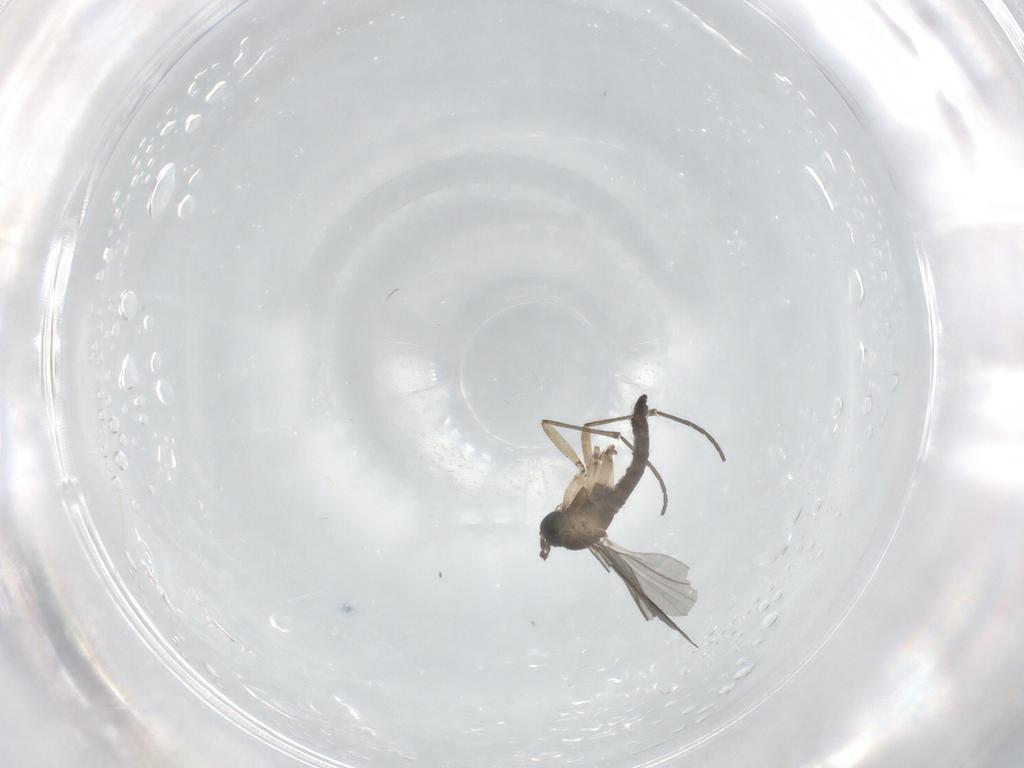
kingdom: Animalia
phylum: Arthropoda
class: Insecta
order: Diptera
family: Sciaridae
